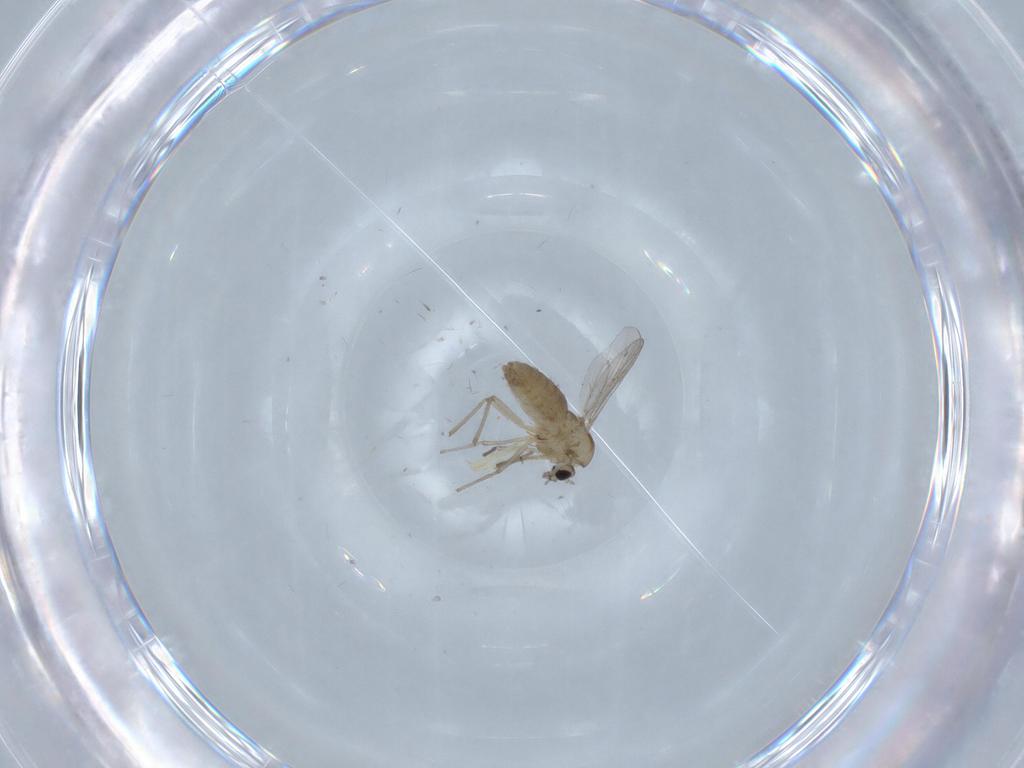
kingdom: Animalia
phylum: Arthropoda
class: Insecta
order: Diptera
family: Chironomidae
